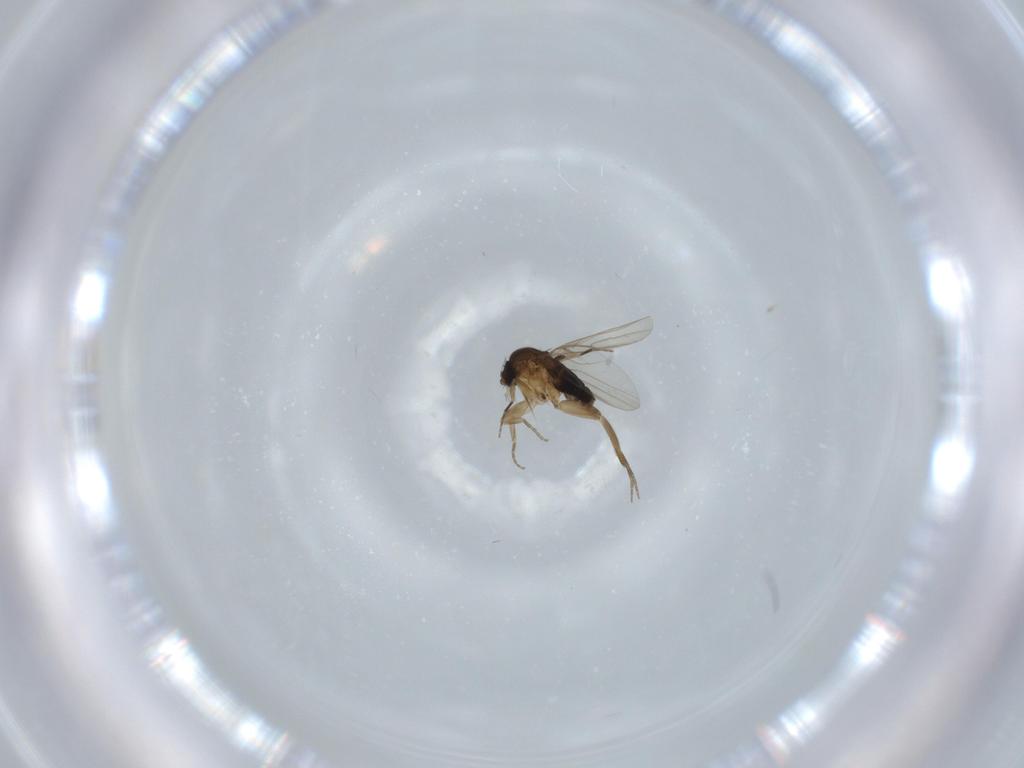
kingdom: Animalia
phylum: Arthropoda
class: Insecta
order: Diptera
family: Phoridae
